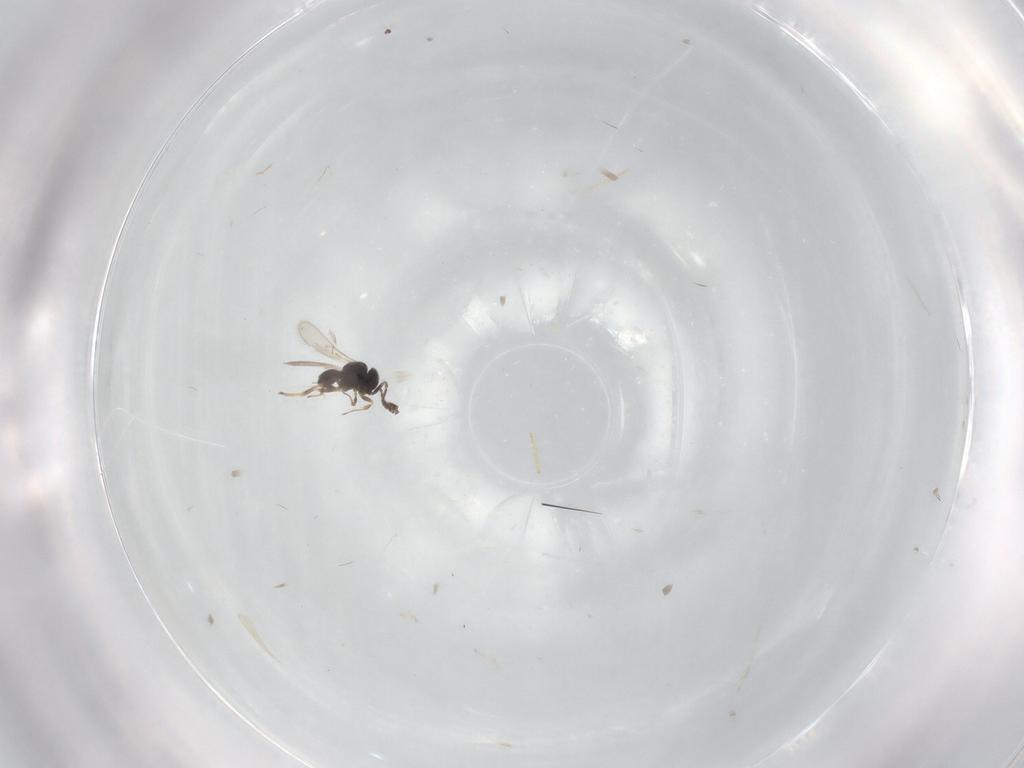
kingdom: Animalia
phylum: Arthropoda
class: Insecta
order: Hymenoptera
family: Scelionidae
